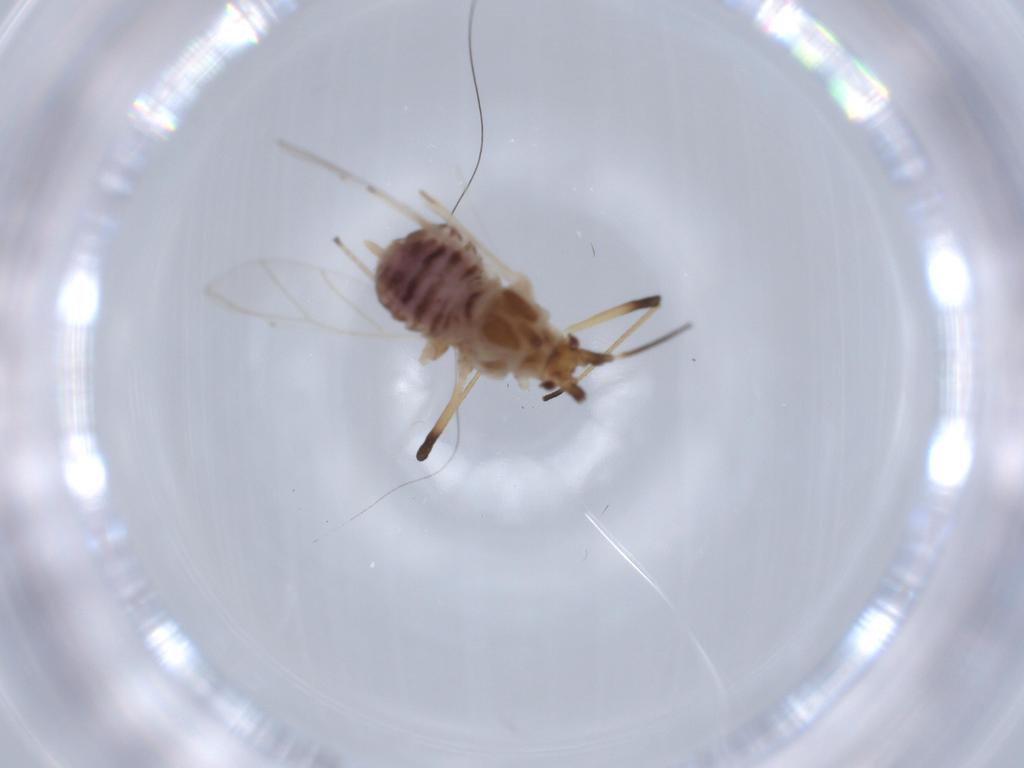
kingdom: Animalia
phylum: Arthropoda
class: Insecta
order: Hemiptera
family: Aphididae
